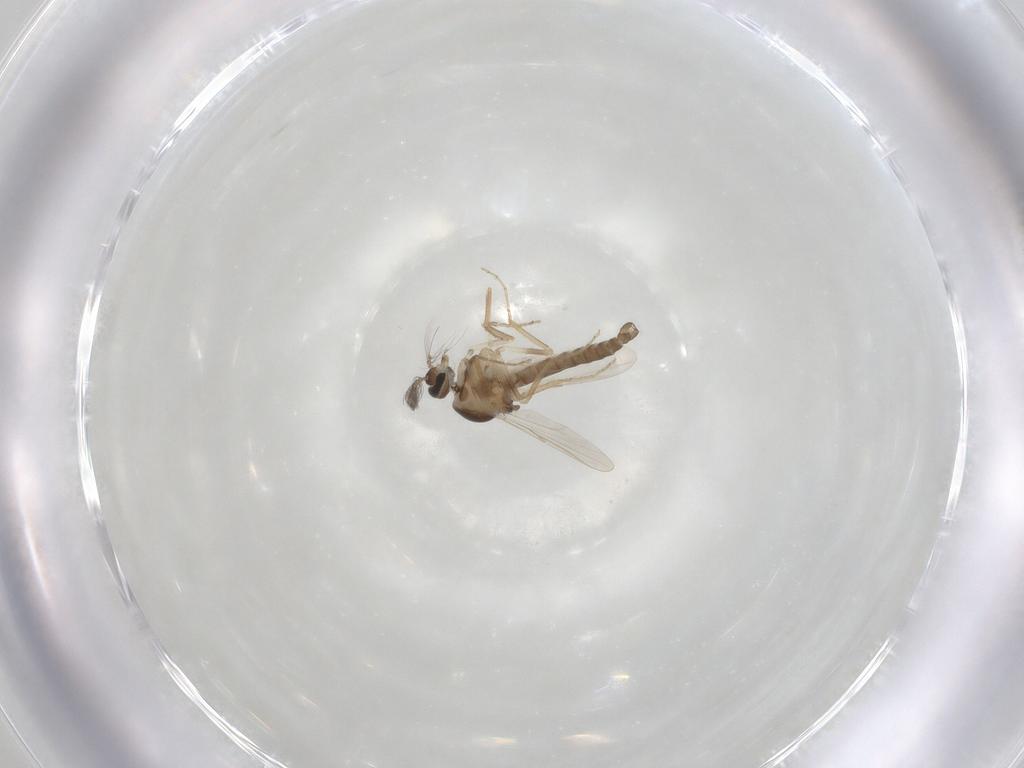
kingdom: Animalia
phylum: Arthropoda
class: Insecta
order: Diptera
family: Ceratopogonidae
